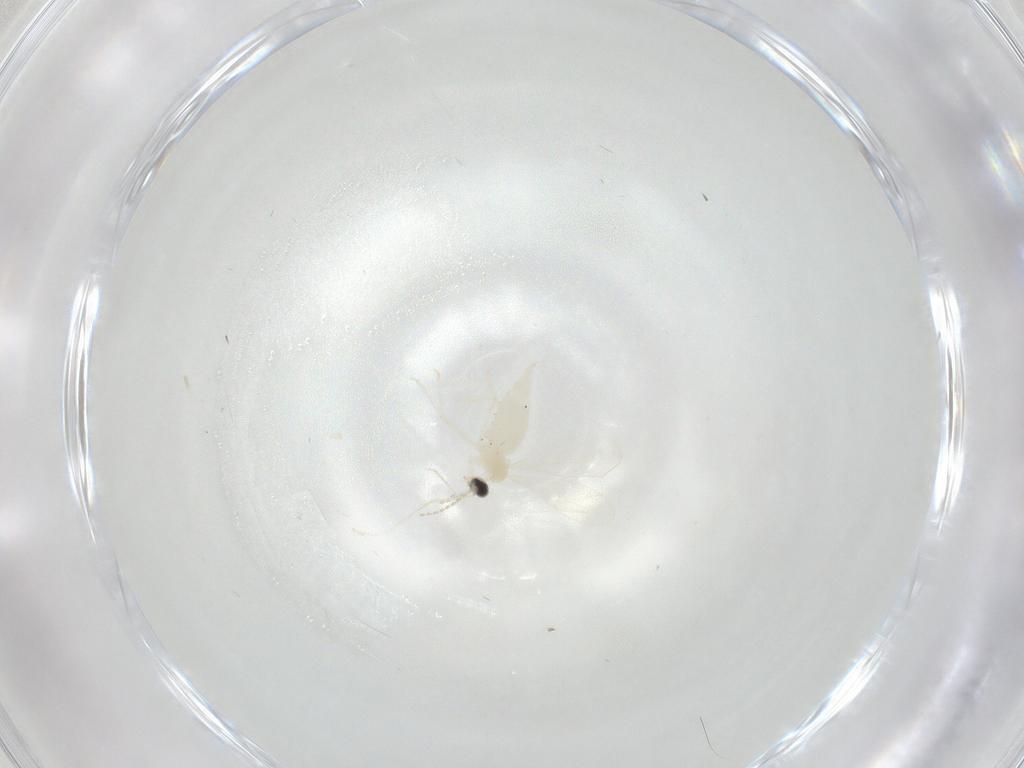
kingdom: Animalia
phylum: Arthropoda
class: Insecta
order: Diptera
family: Cecidomyiidae
